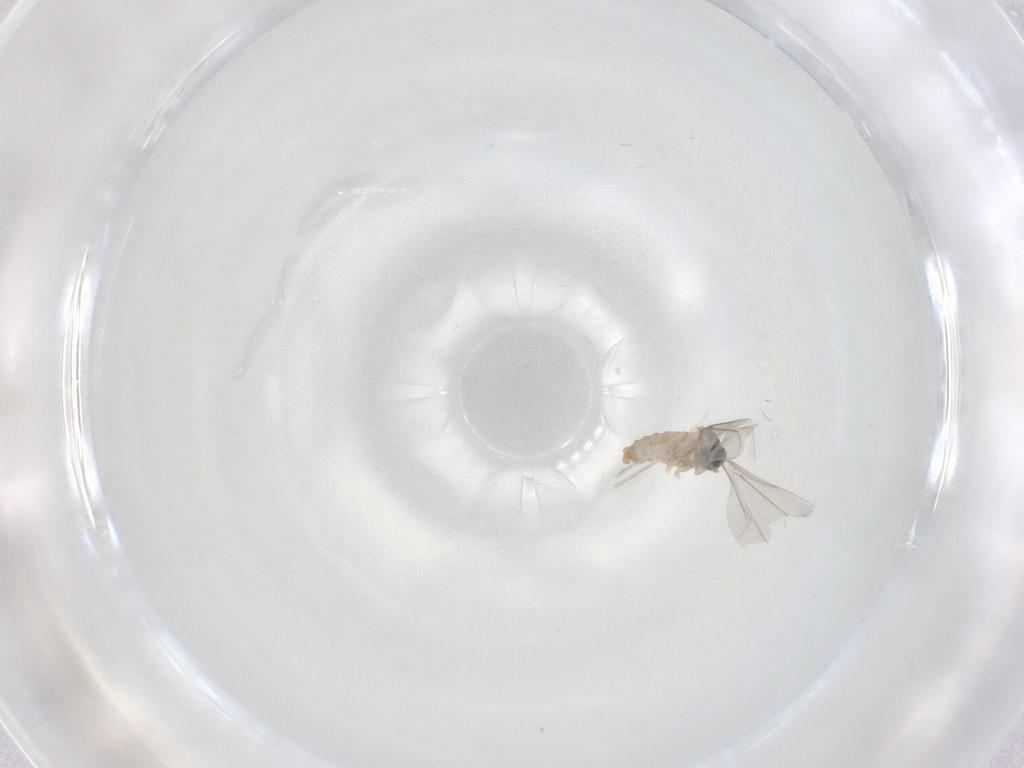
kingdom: Animalia
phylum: Arthropoda
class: Insecta
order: Diptera
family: Cecidomyiidae
